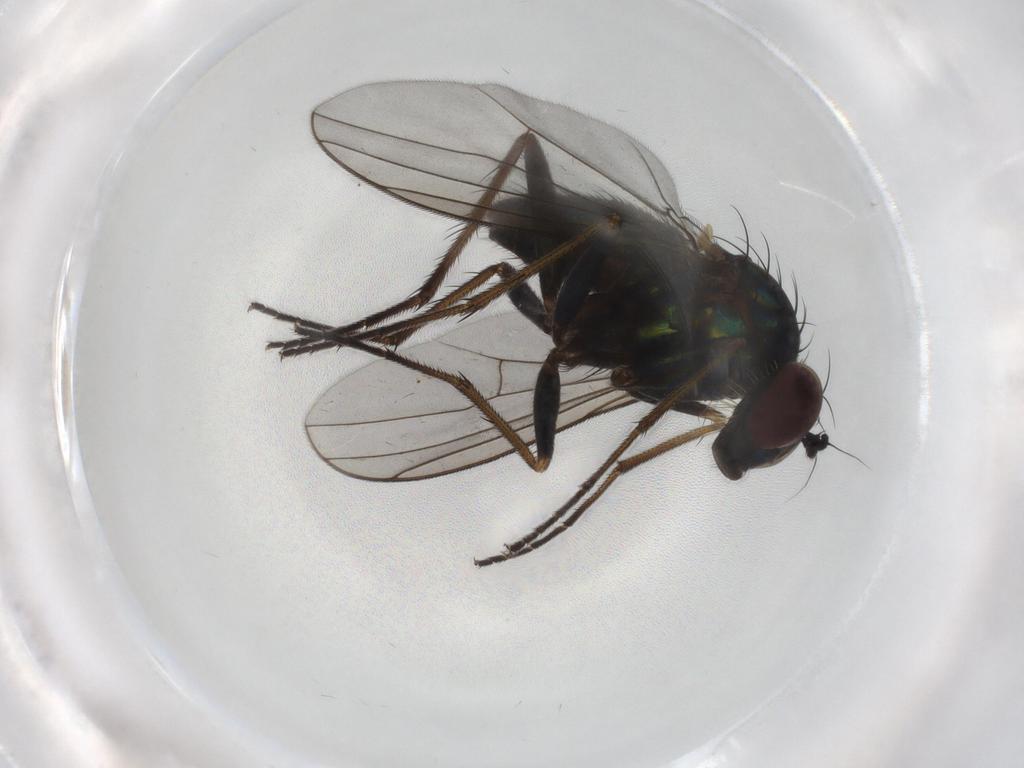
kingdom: Animalia
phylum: Arthropoda
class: Insecta
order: Diptera
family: Dolichopodidae
